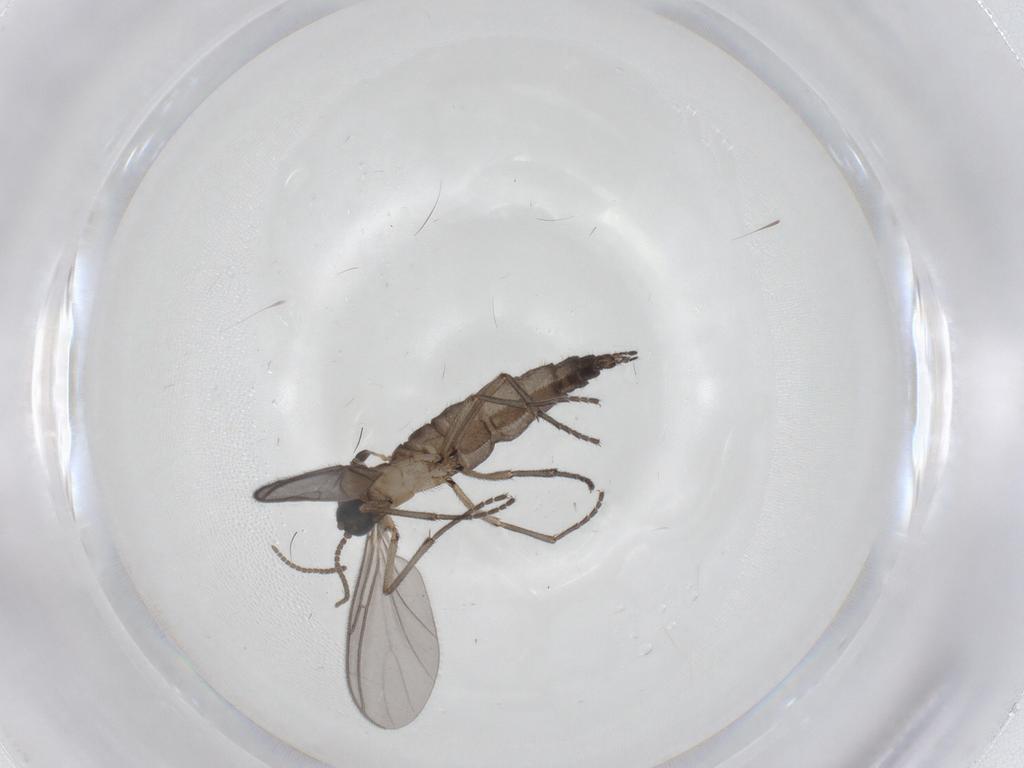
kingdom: Animalia
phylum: Arthropoda
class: Insecta
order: Diptera
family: Sciaridae
